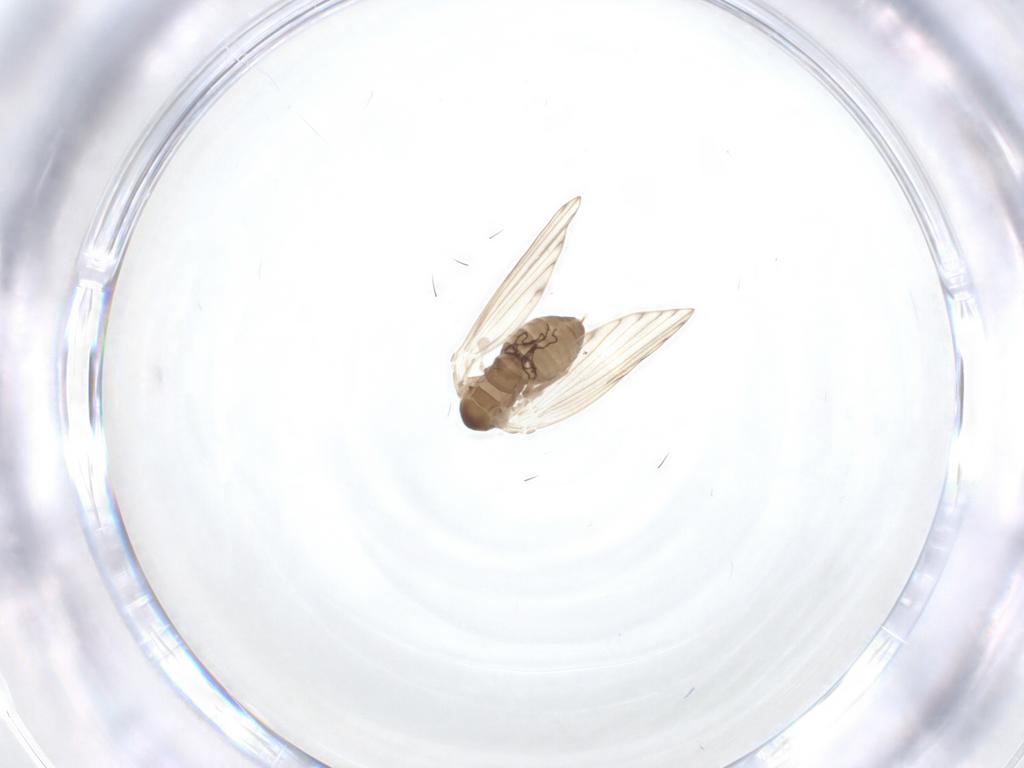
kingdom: Animalia
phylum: Arthropoda
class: Insecta
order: Diptera
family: Psychodidae
